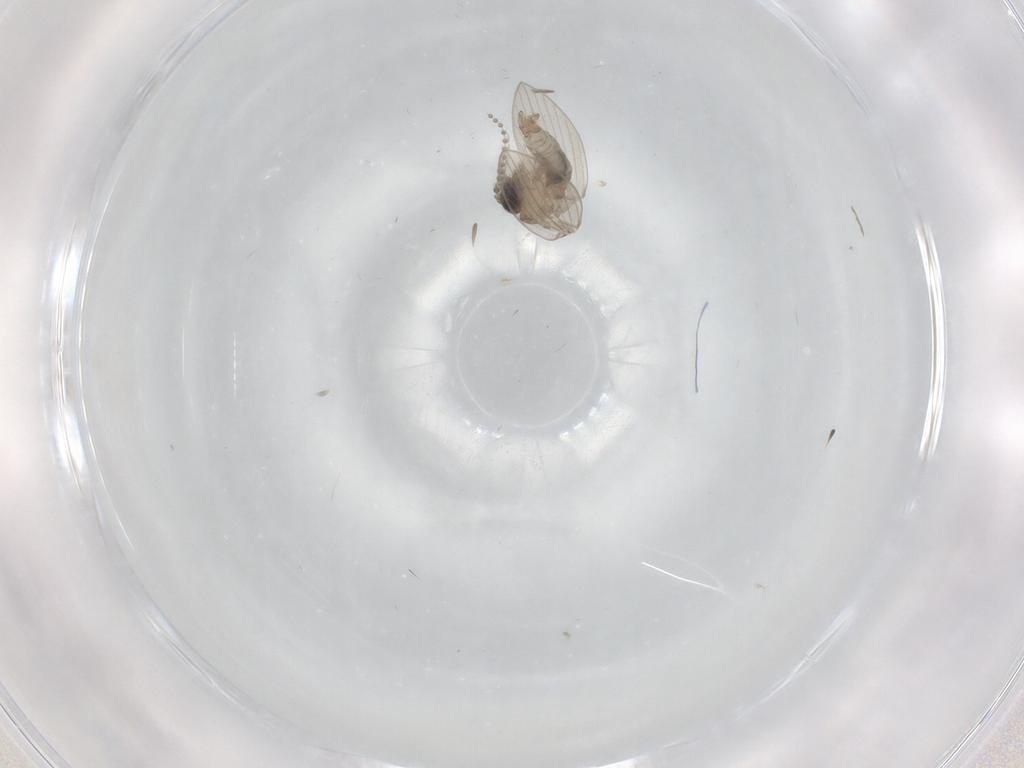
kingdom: Animalia
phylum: Arthropoda
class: Insecta
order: Diptera
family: Psychodidae
